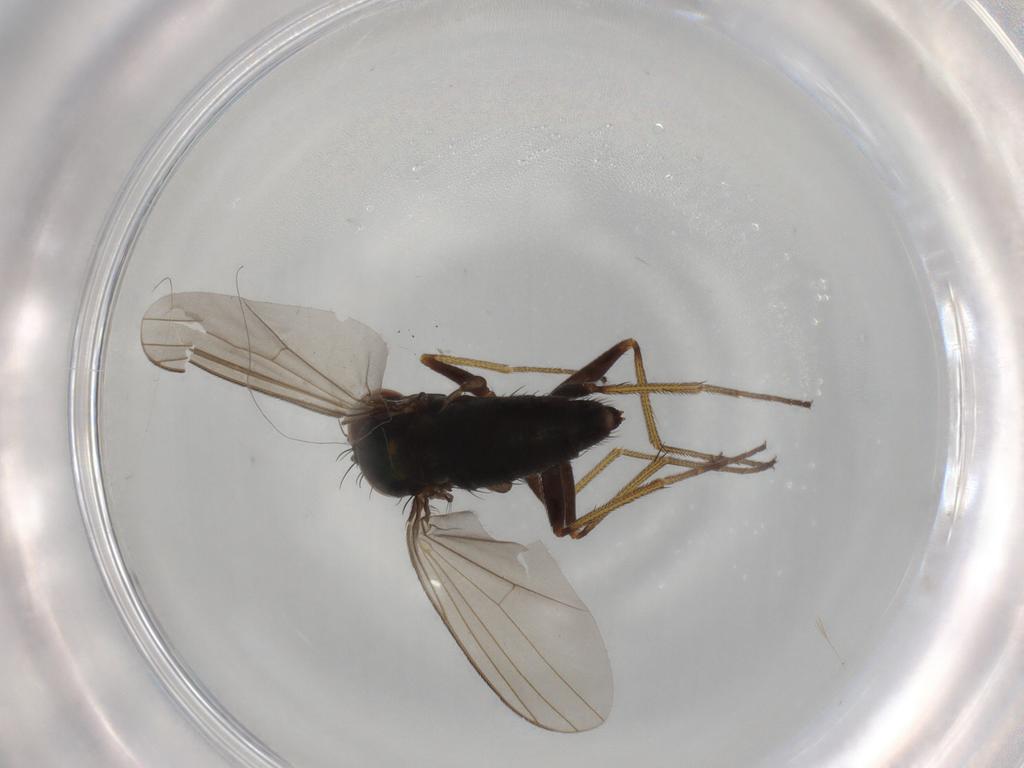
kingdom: Animalia
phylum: Arthropoda
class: Insecta
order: Diptera
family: Dolichopodidae
